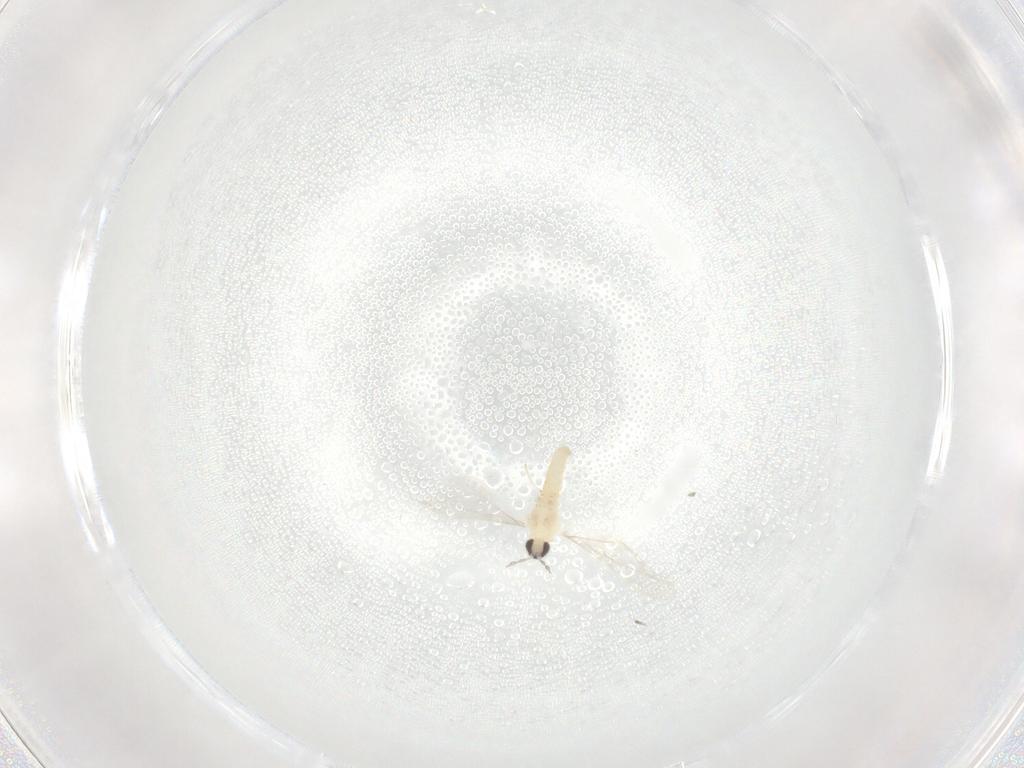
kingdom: Animalia
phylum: Arthropoda
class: Insecta
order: Diptera
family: Cecidomyiidae
